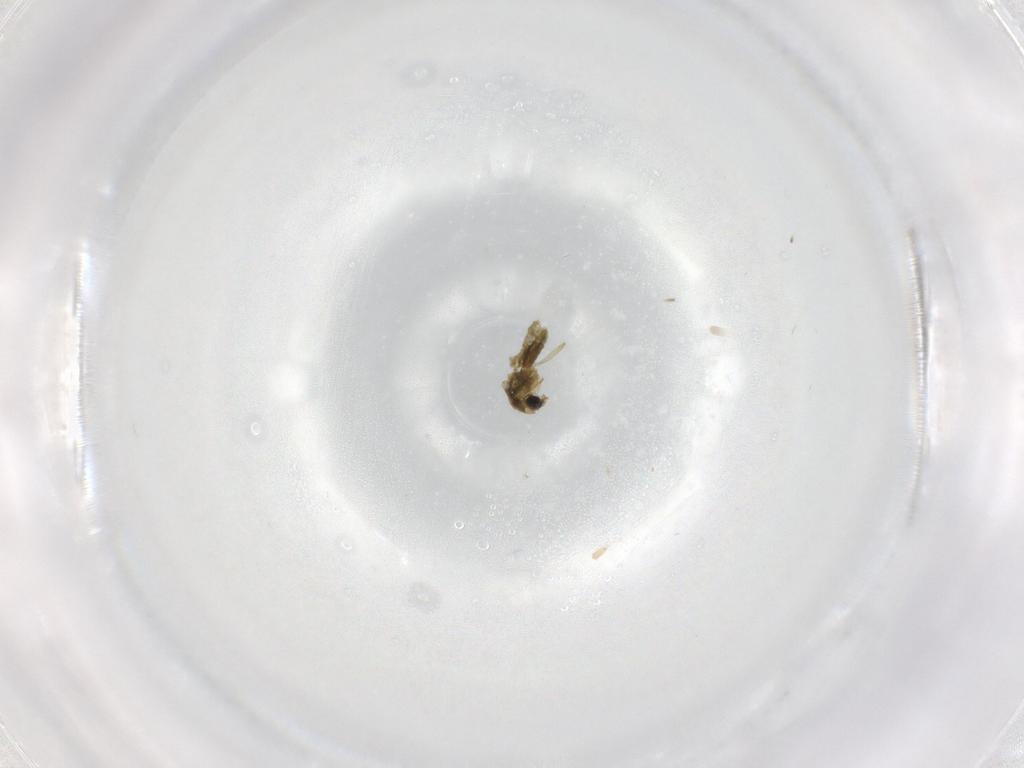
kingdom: Animalia
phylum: Arthropoda
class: Insecta
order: Diptera
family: Chironomidae
